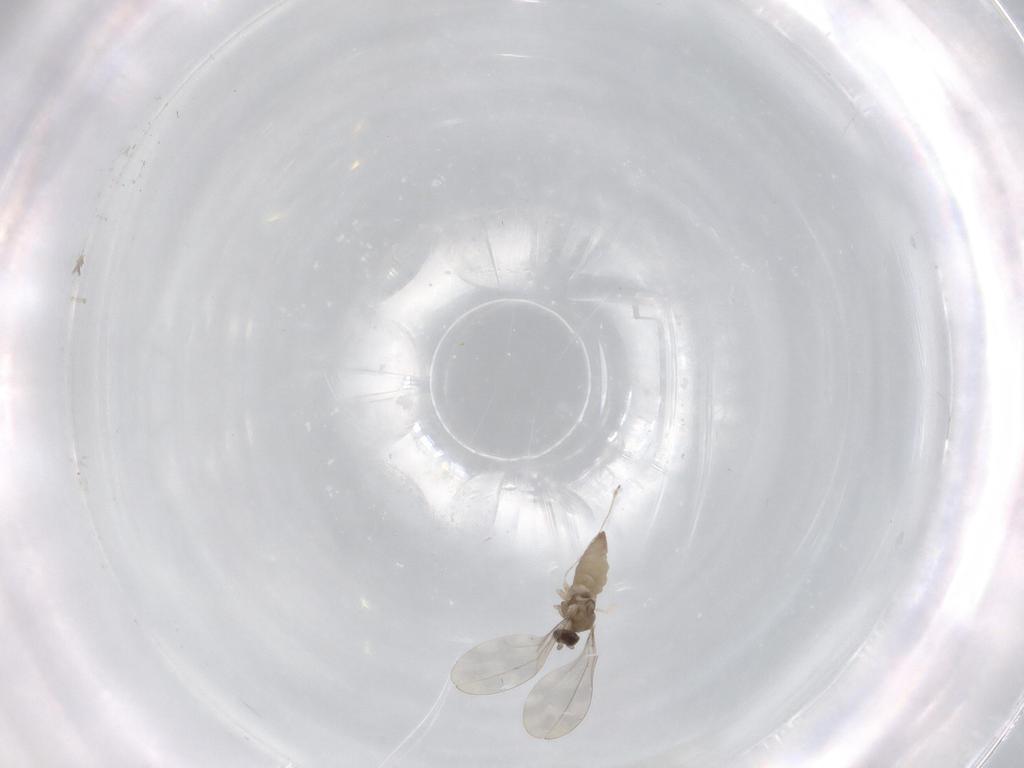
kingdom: Animalia
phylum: Arthropoda
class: Insecta
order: Diptera
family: Cecidomyiidae
